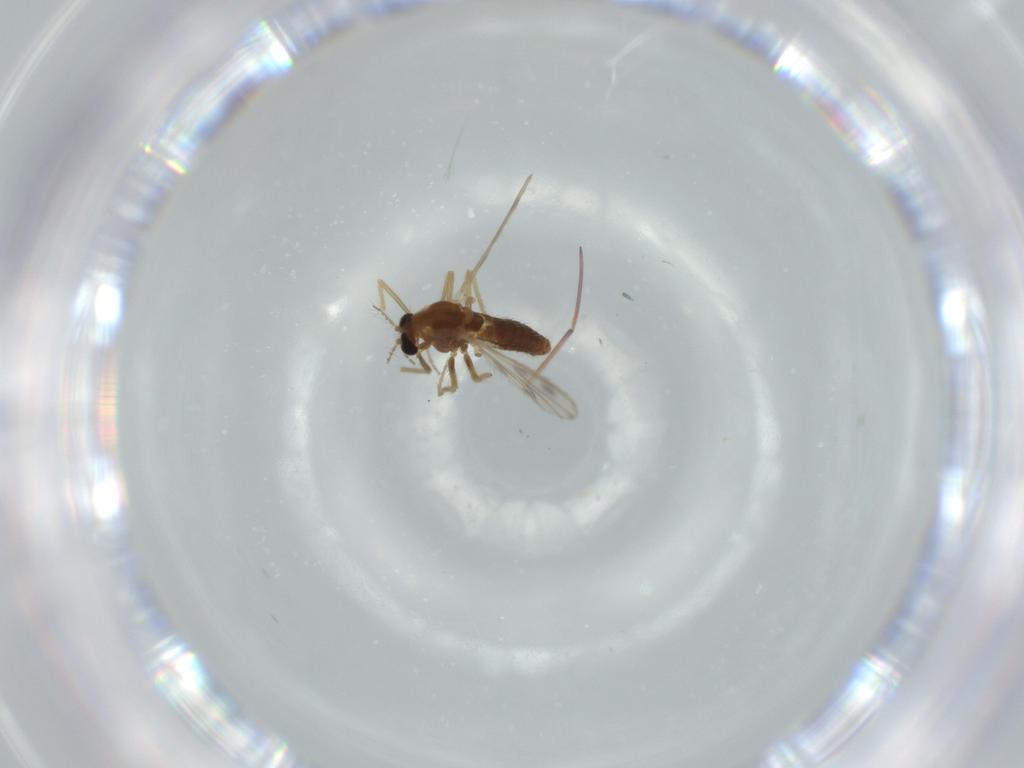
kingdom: Animalia
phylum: Arthropoda
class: Insecta
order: Diptera
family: Chironomidae
